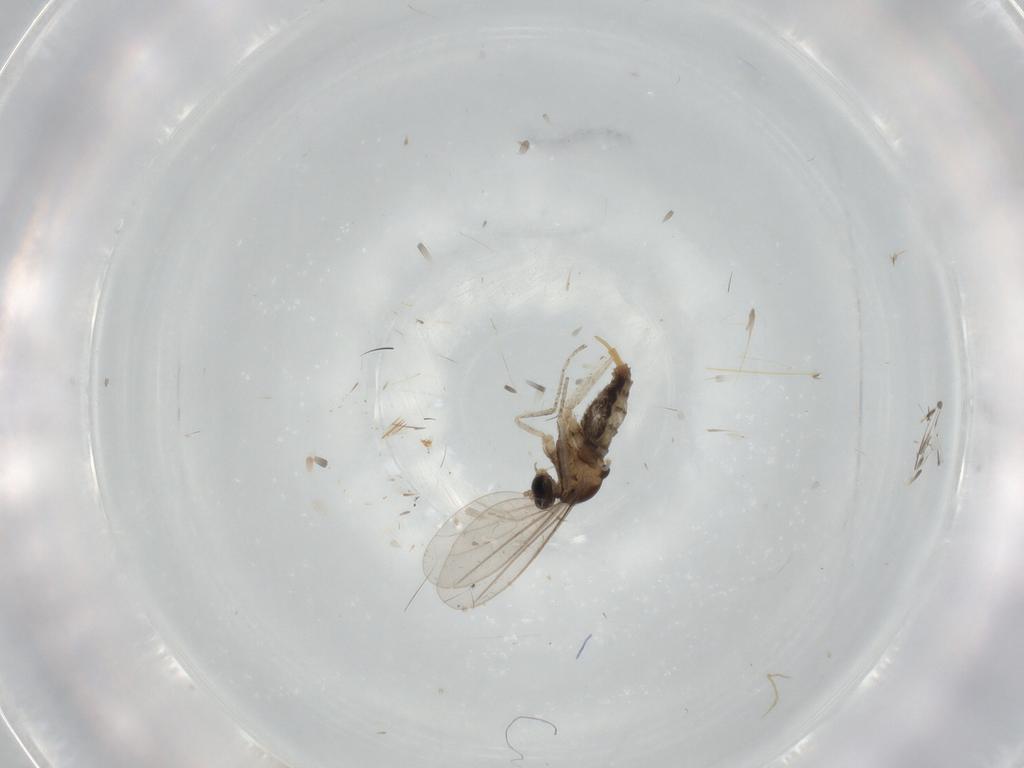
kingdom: Animalia
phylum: Arthropoda
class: Insecta
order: Diptera
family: Cecidomyiidae
